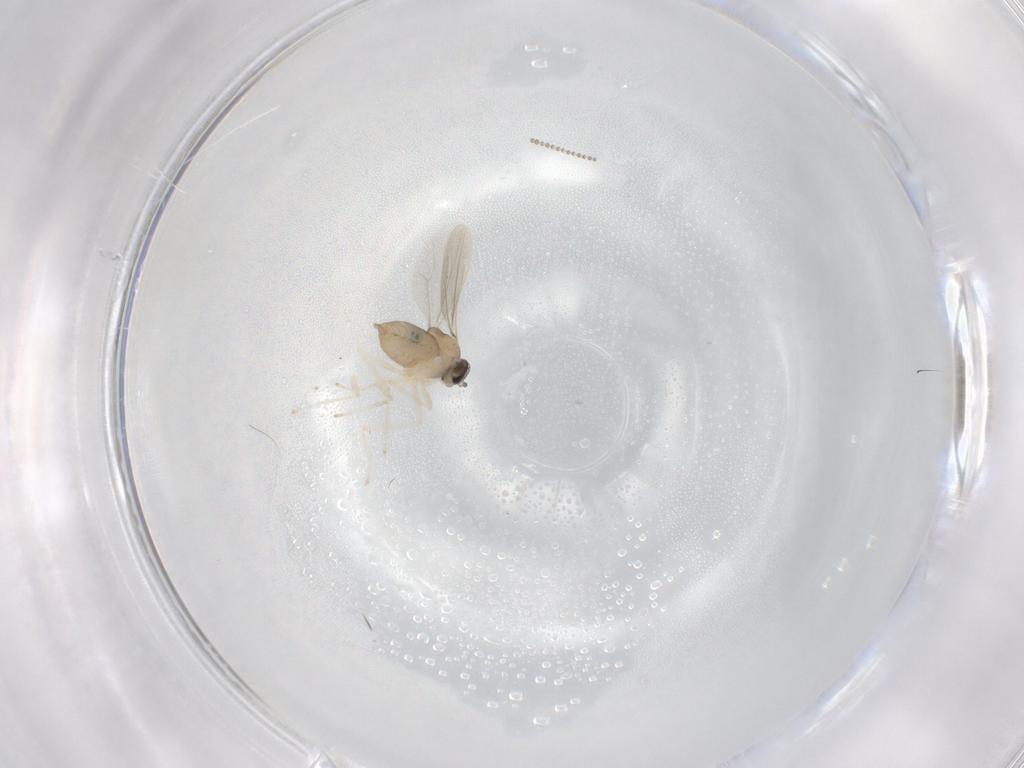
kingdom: Animalia
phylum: Arthropoda
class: Insecta
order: Diptera
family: Cecidomyiidae
